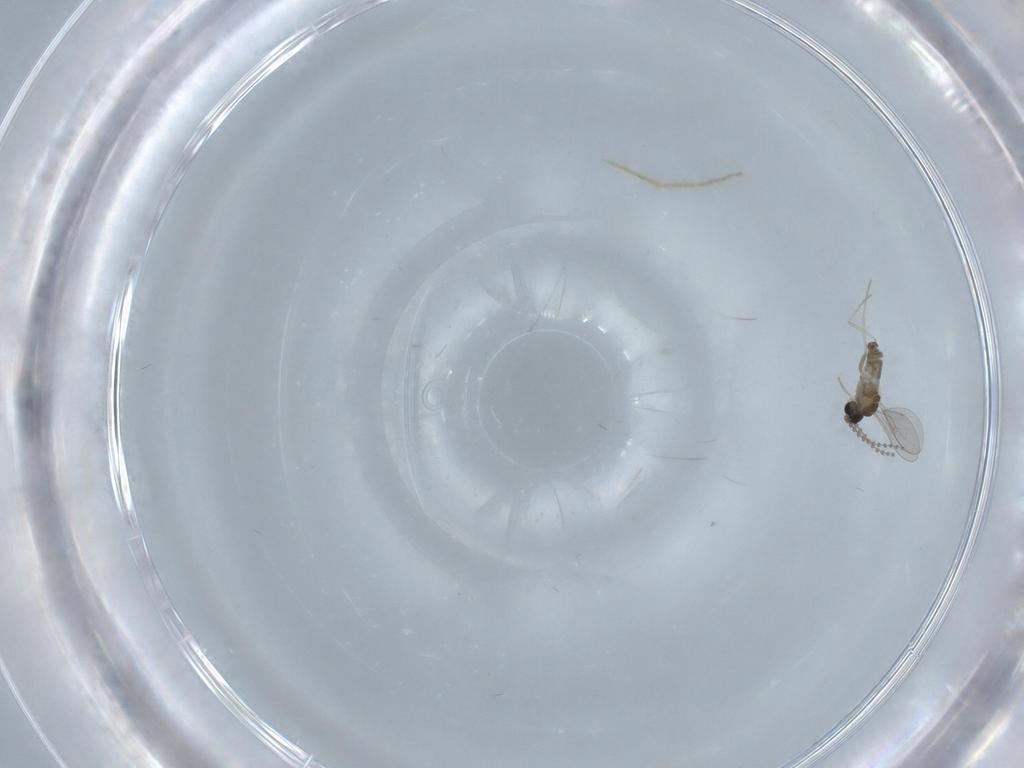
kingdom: Animalia
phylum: Arthropoda
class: Insecta
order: Diptera
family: Cecidomyiidae
